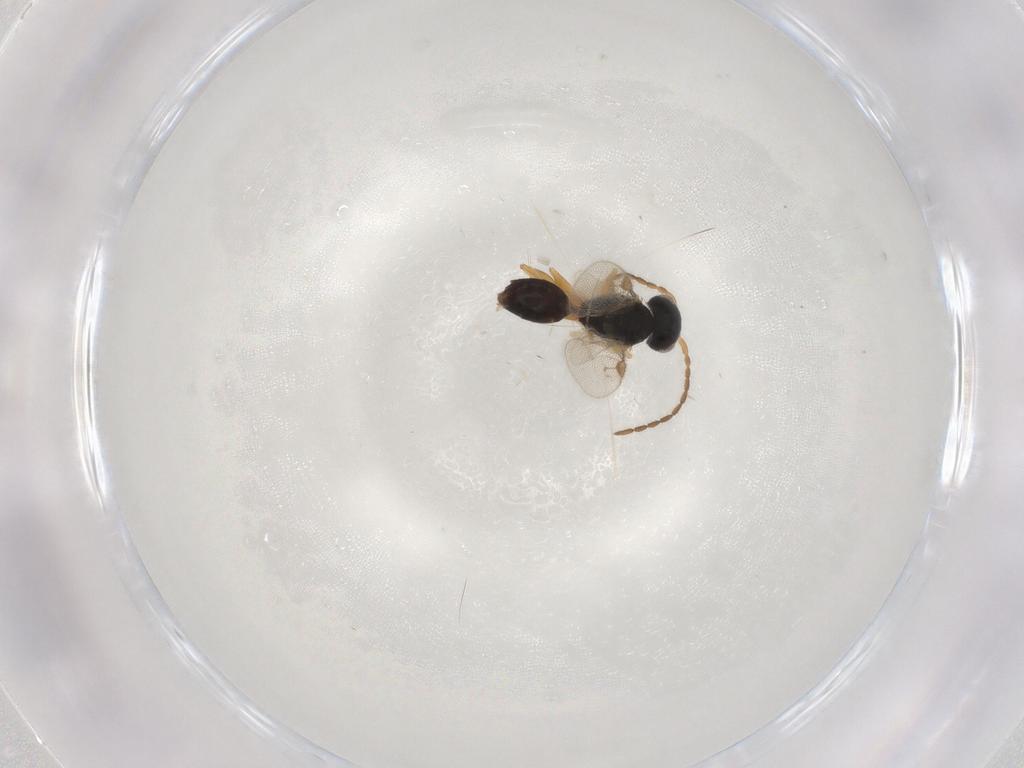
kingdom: Animalia
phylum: Arthropoda
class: Insecta
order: Hymenoptera
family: Dryinidae
